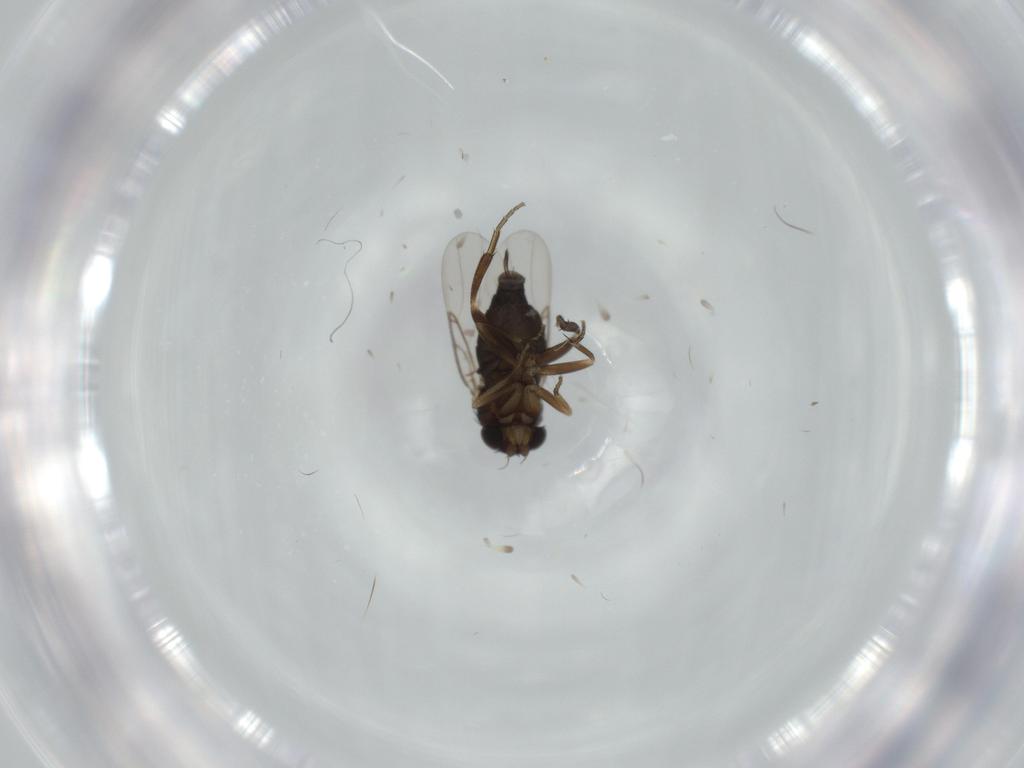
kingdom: Animalia
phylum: Arthropoda
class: Insecta
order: Diptera
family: Phoridae
